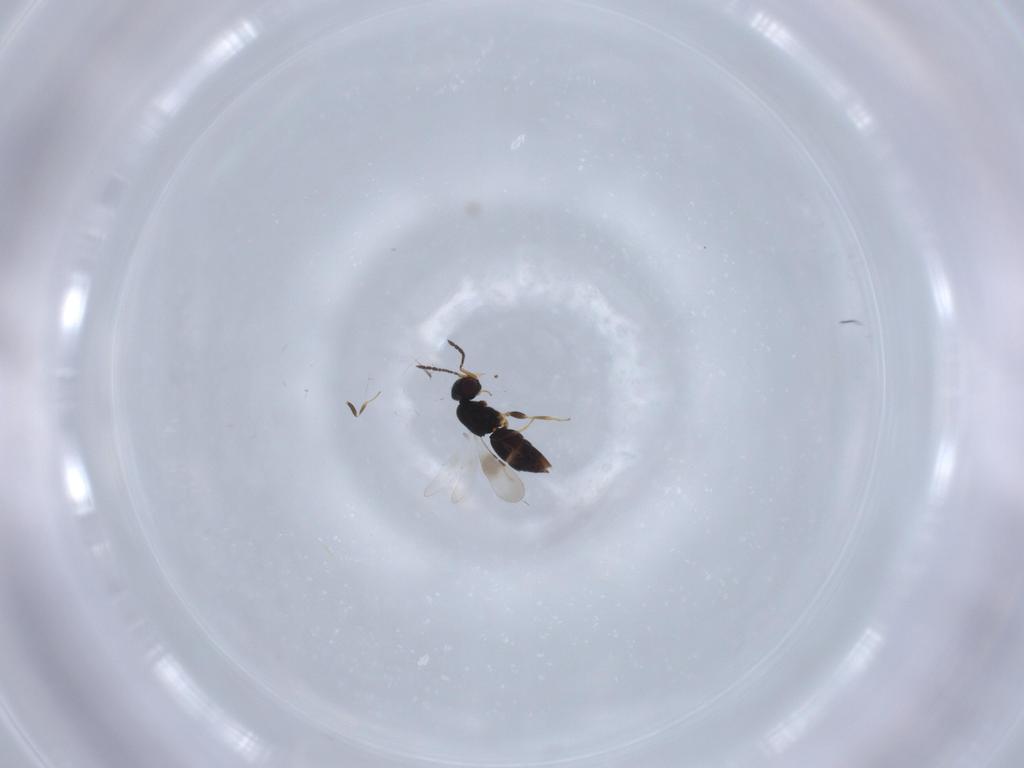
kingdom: Animalia
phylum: Arthropoda
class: Insecta
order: Hymenoptera
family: Ceraphronidae
